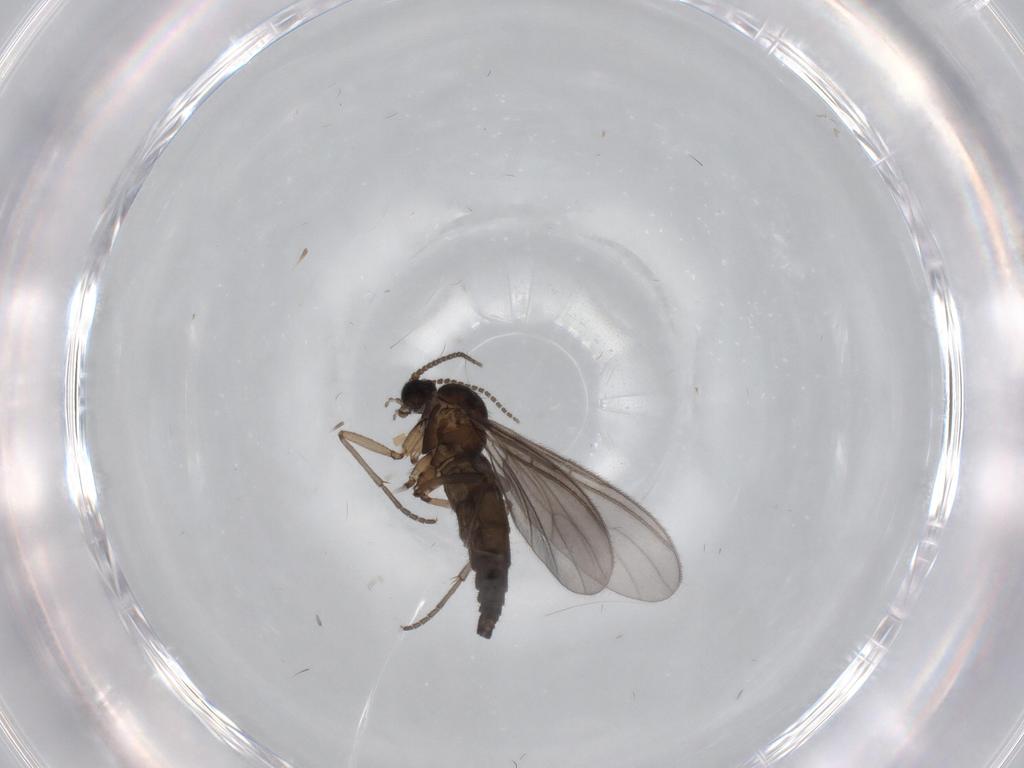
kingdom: Animalia
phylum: Arthropoda
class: Insecta
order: Diptera
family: Sciaridae
